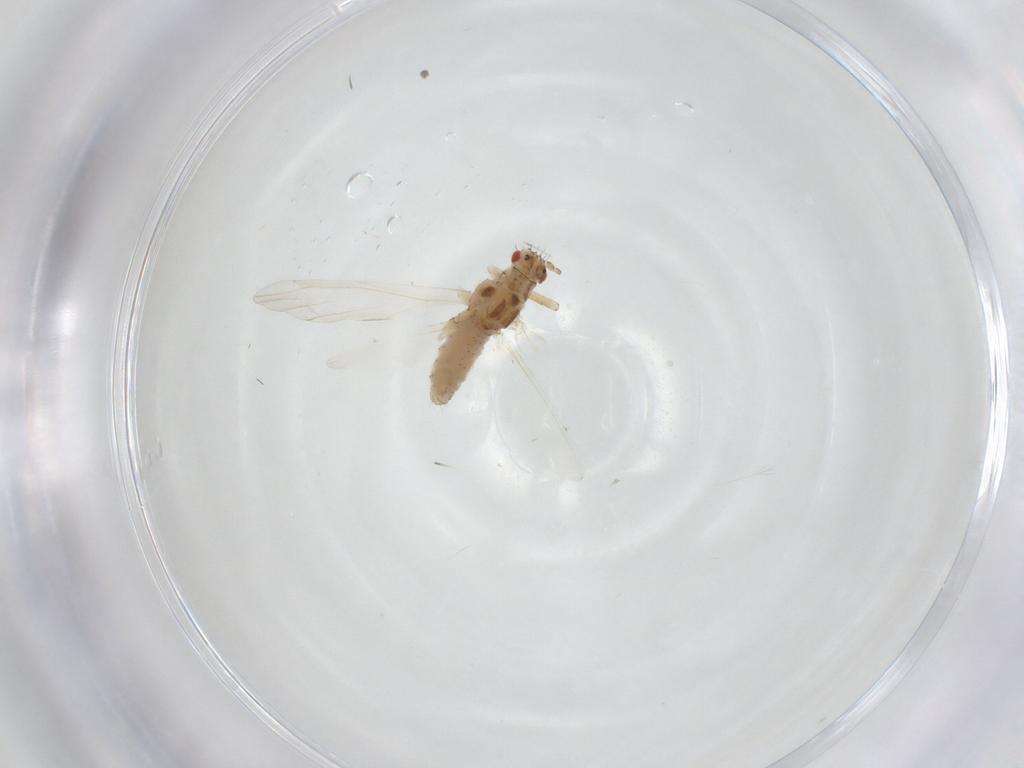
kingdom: Animalia
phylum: Arthropoda
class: Insecta
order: Hemiptera
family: Aphididae
